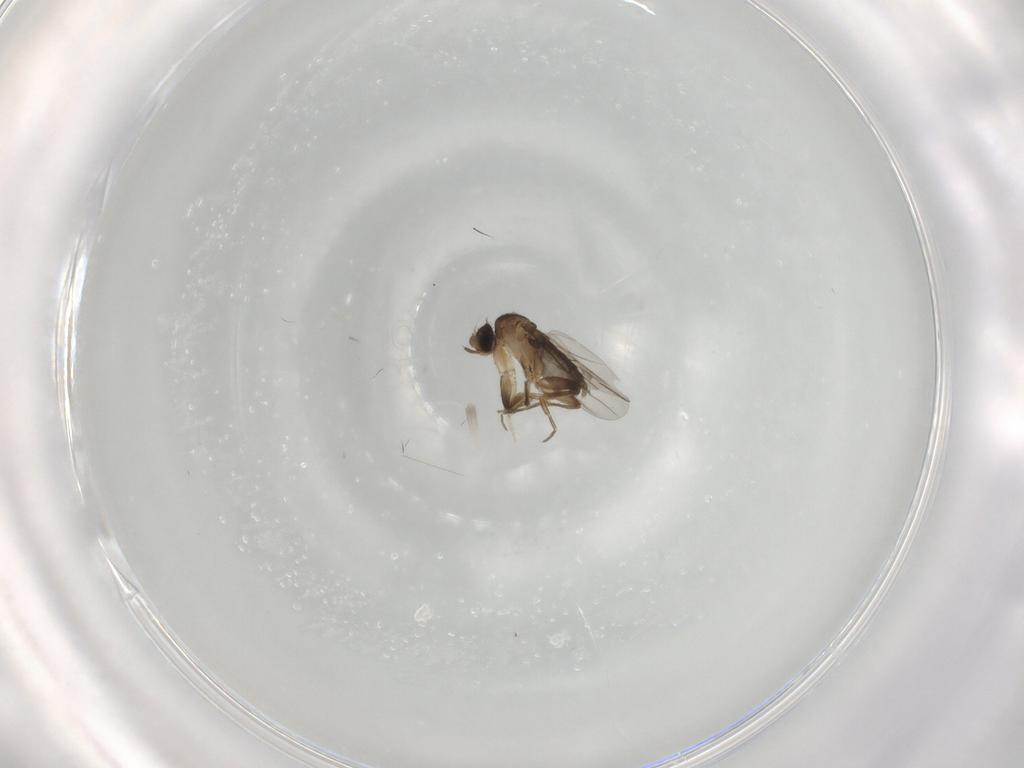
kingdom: Animalia
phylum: Arthropoda
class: Insecta
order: Diptera
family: Phoridae
